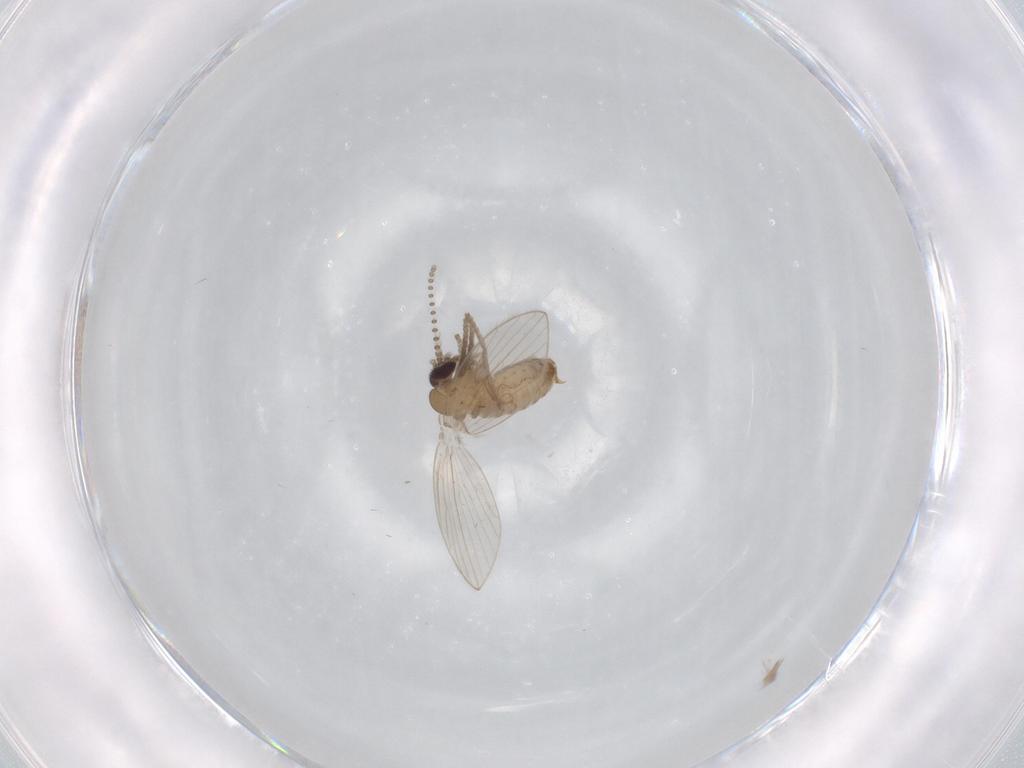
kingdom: Animalia
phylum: Arthropoda
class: Insecta
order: Diptera
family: Psychodidae
